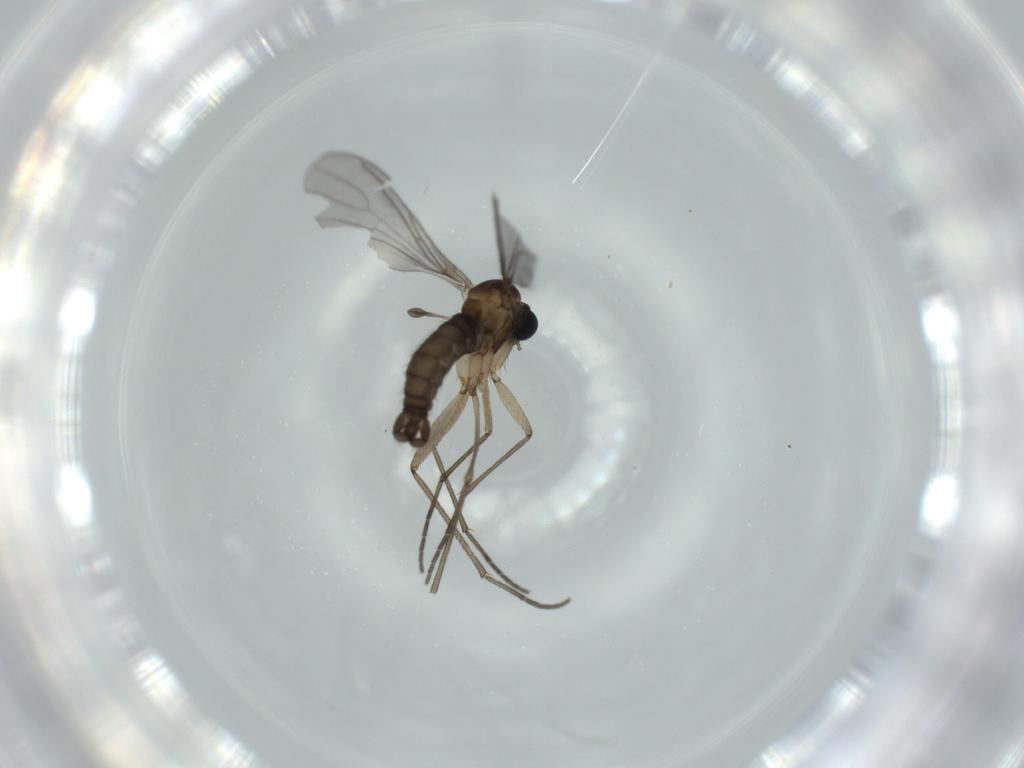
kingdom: Animalia
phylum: Arthropoda
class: Insecta
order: Diptera
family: Sciaridae
